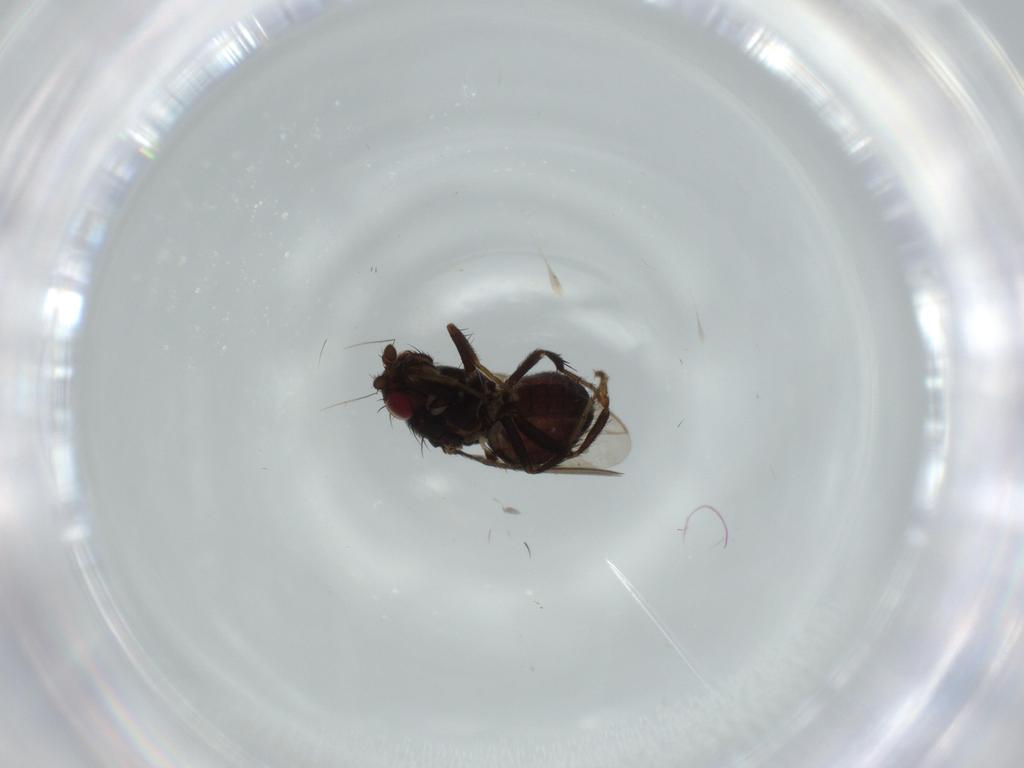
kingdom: Animalia
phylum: Arthropoda
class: Insecta
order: Diptera
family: Sphaeroceridae
